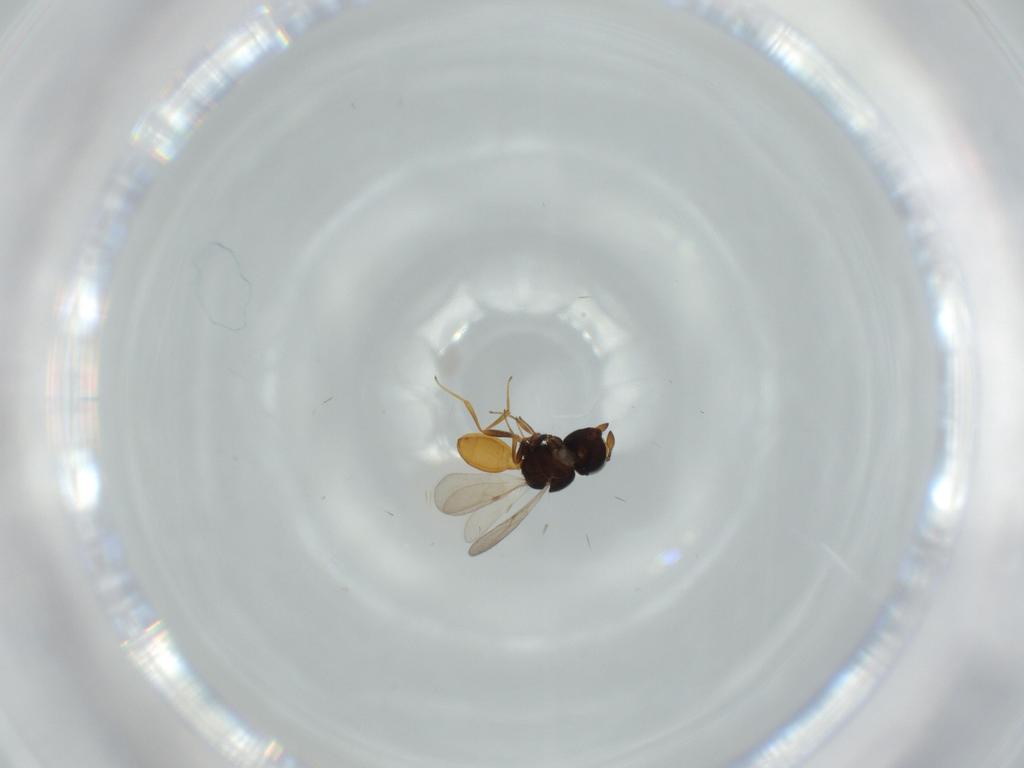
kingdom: Animalia
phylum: Arthropoda
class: Insecta
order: Hymenoptera
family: Scelionidae
